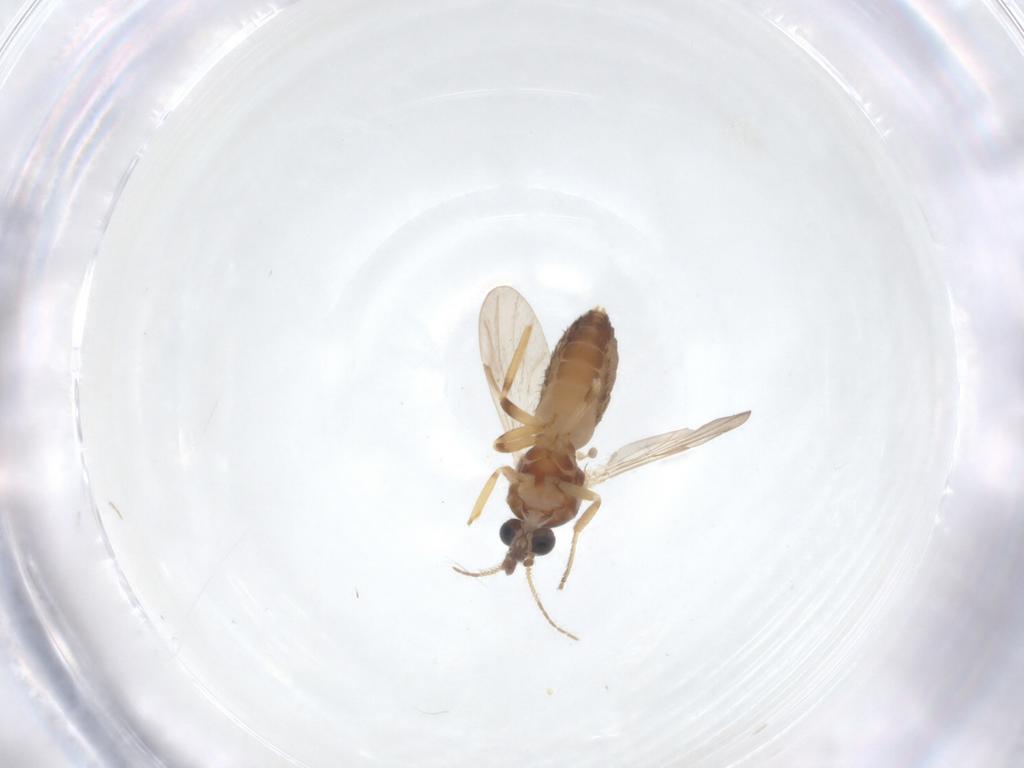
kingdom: Animalia
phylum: Arthropoda
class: Insecta
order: Diptera
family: Ceratopogonidae
